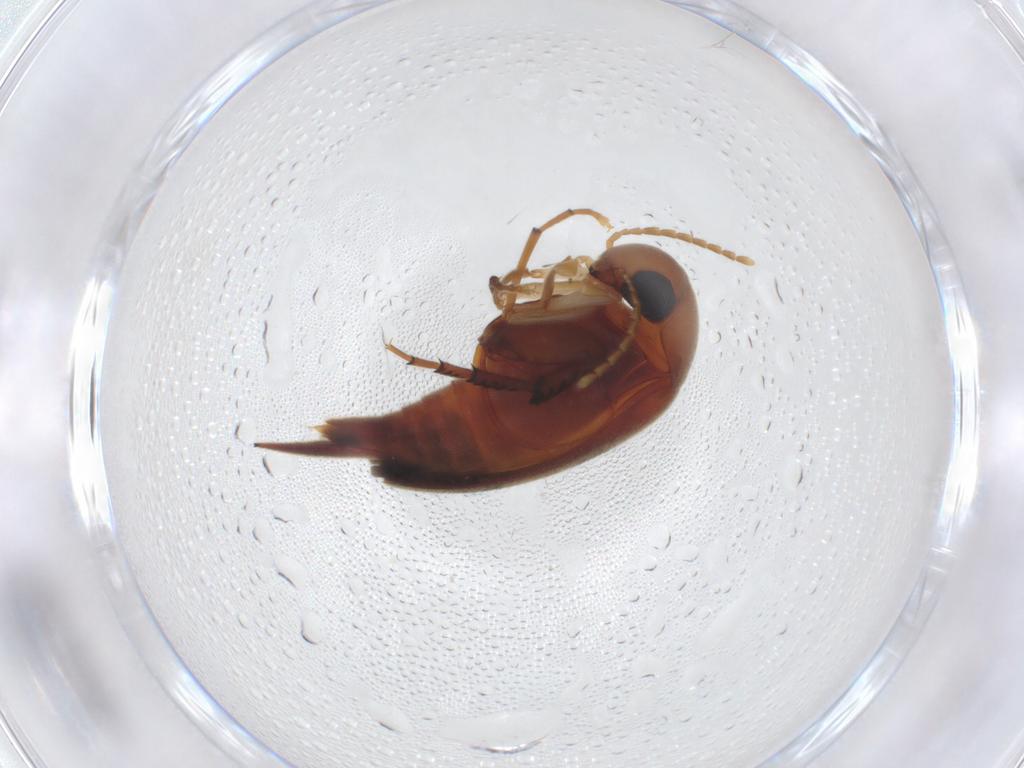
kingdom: Animalia
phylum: Arthropoda
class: Insecta
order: Coleoptera
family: Mordellidae
